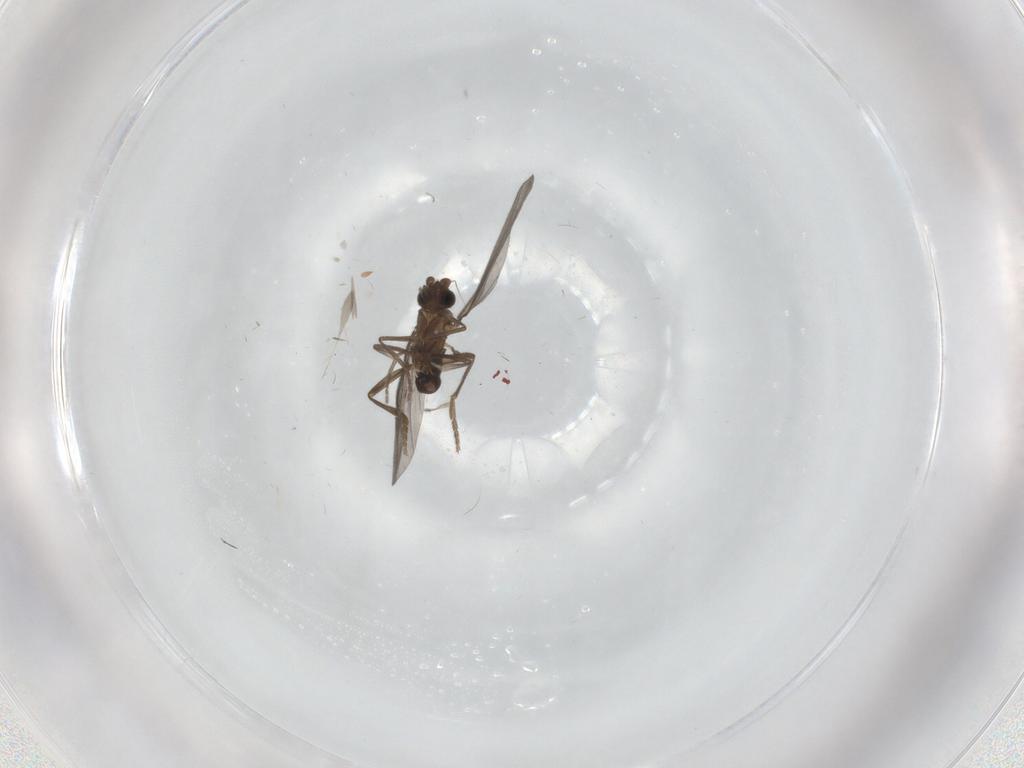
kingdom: Animalia
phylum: Arthropoda
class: Insecta
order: Diptera
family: Phoridae
